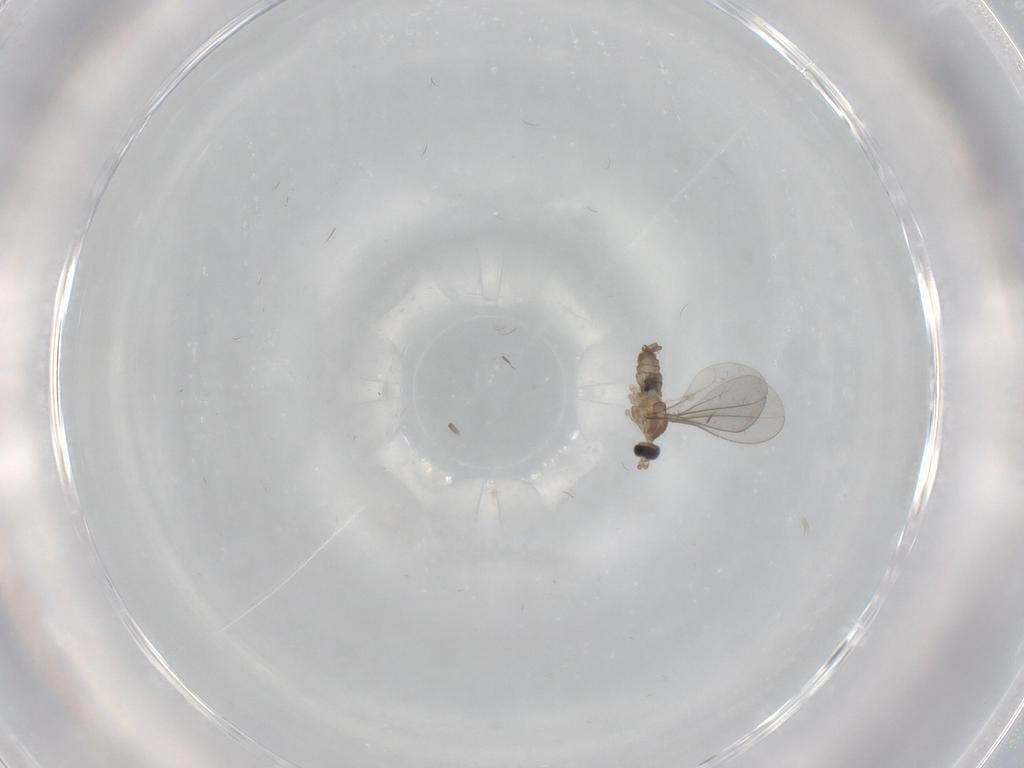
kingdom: Animalia
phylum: Arthropoda
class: Insecta
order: Diptera
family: Cecidomyiidae
